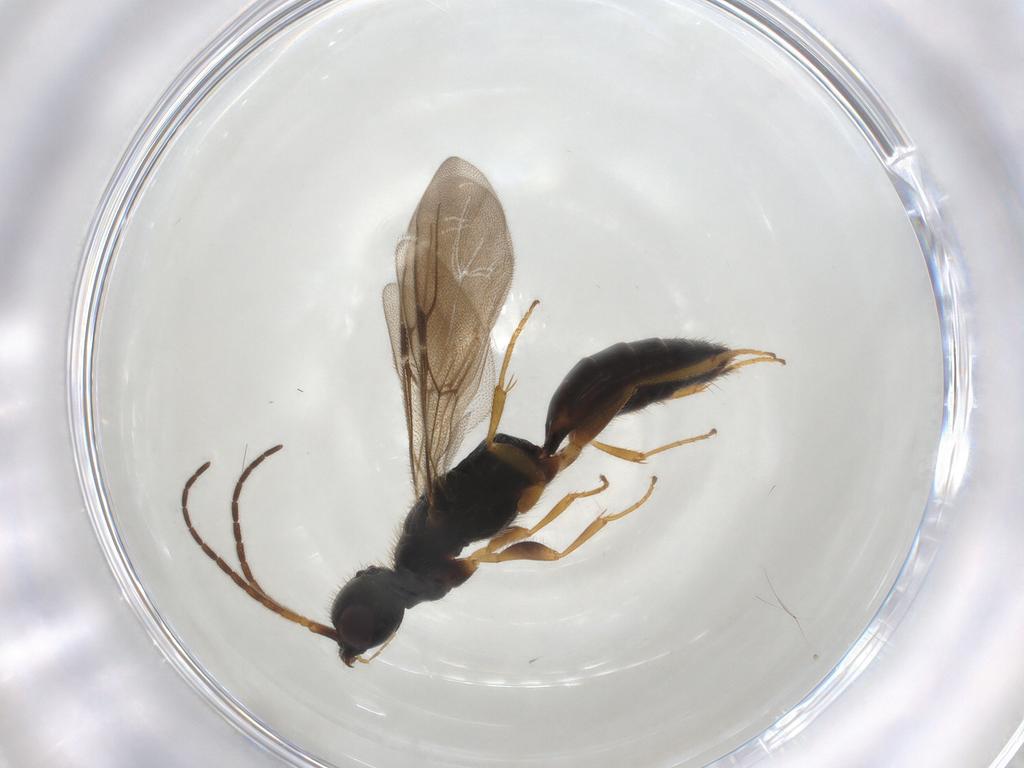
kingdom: Animalia
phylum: Arthropoda
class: Insecta
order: Hymenoptera
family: Bethylidae
